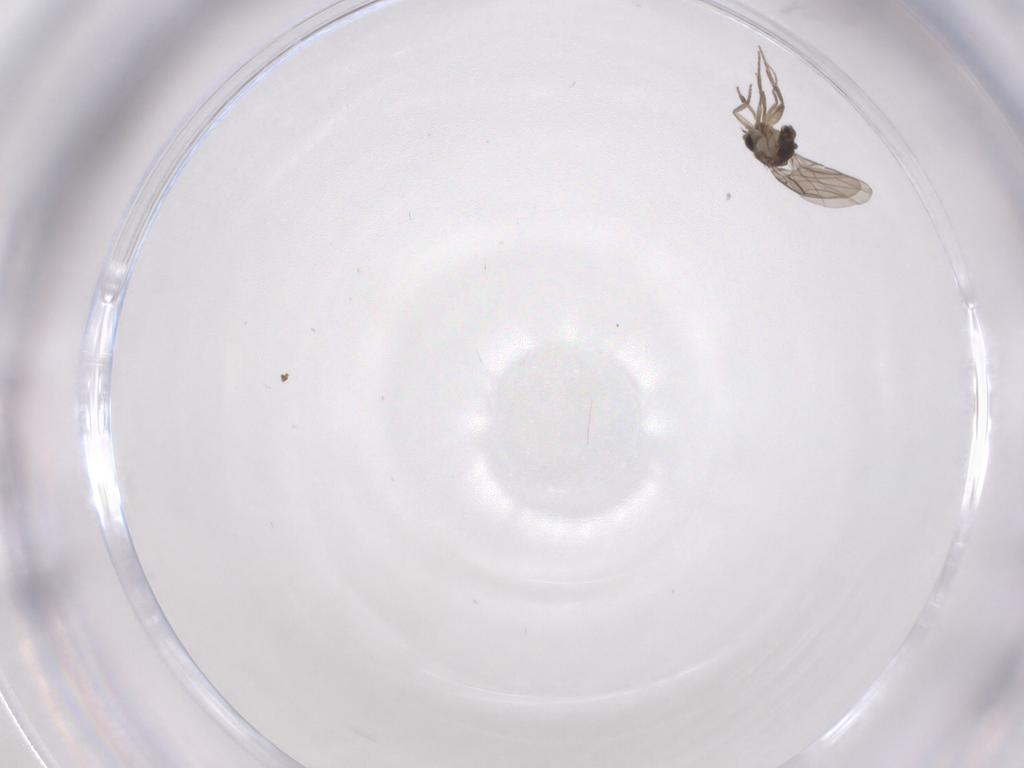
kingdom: Animalia
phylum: Arthropoda
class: Insecta
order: Diptera
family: Phoridae
